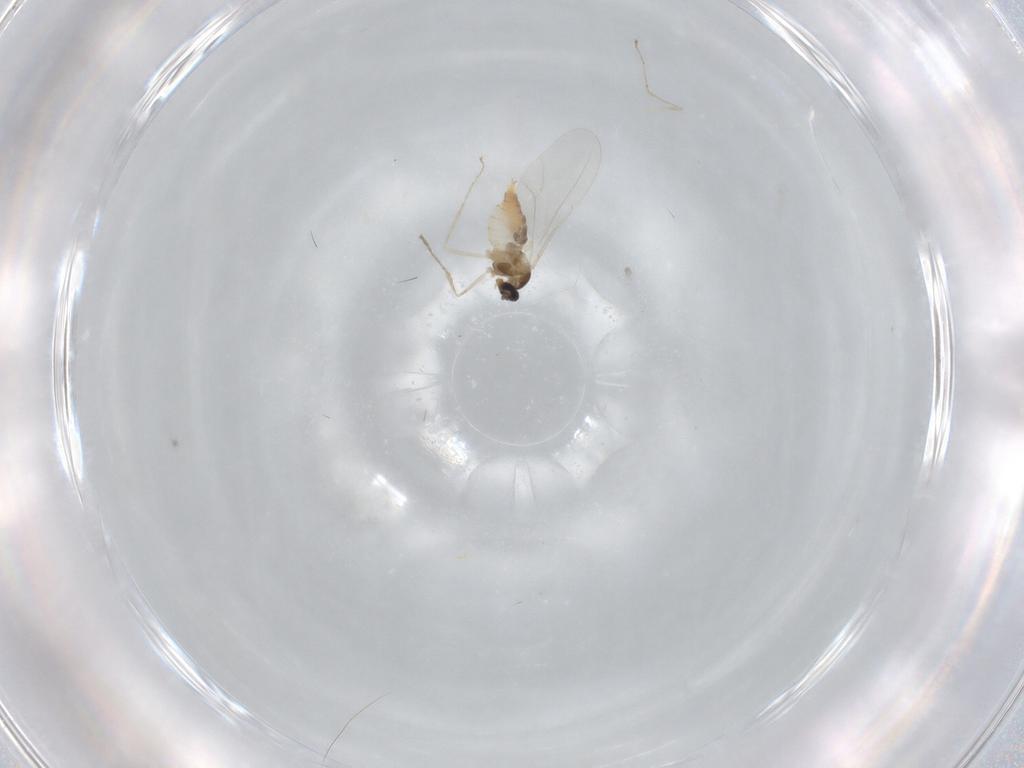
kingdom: Animalia
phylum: Arthropoda
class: Insecta
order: Diptera
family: Cecidomyiidae
